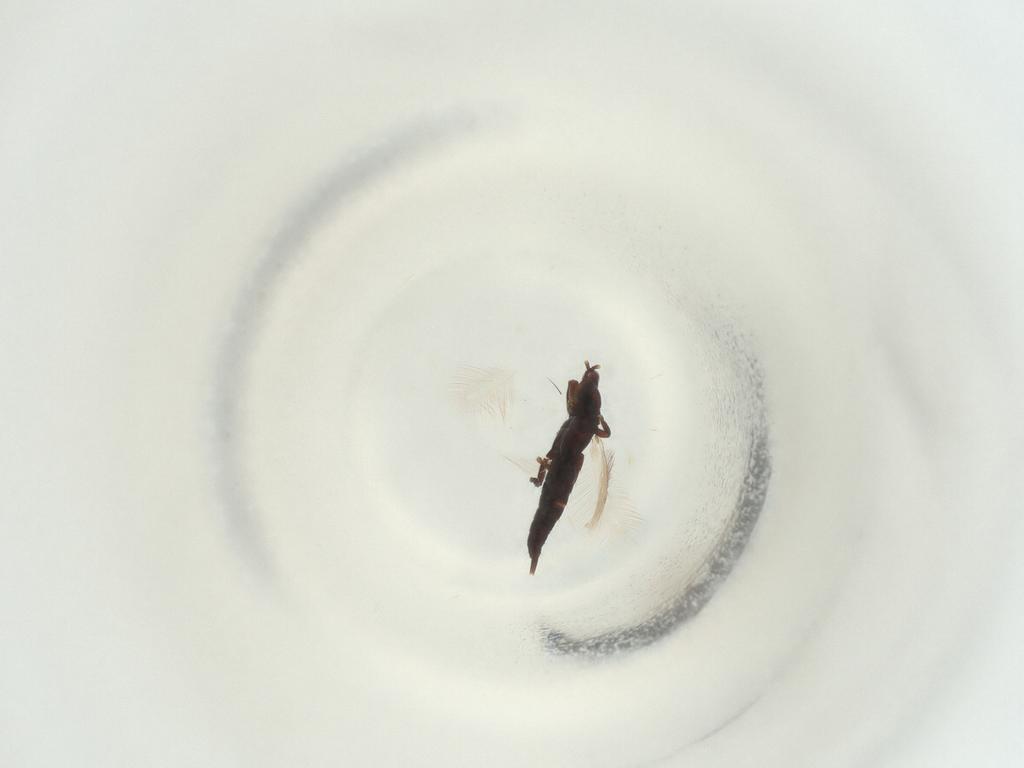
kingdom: Animalia
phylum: Arthropoda
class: Insecta
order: Diptera
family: Chironomidae
